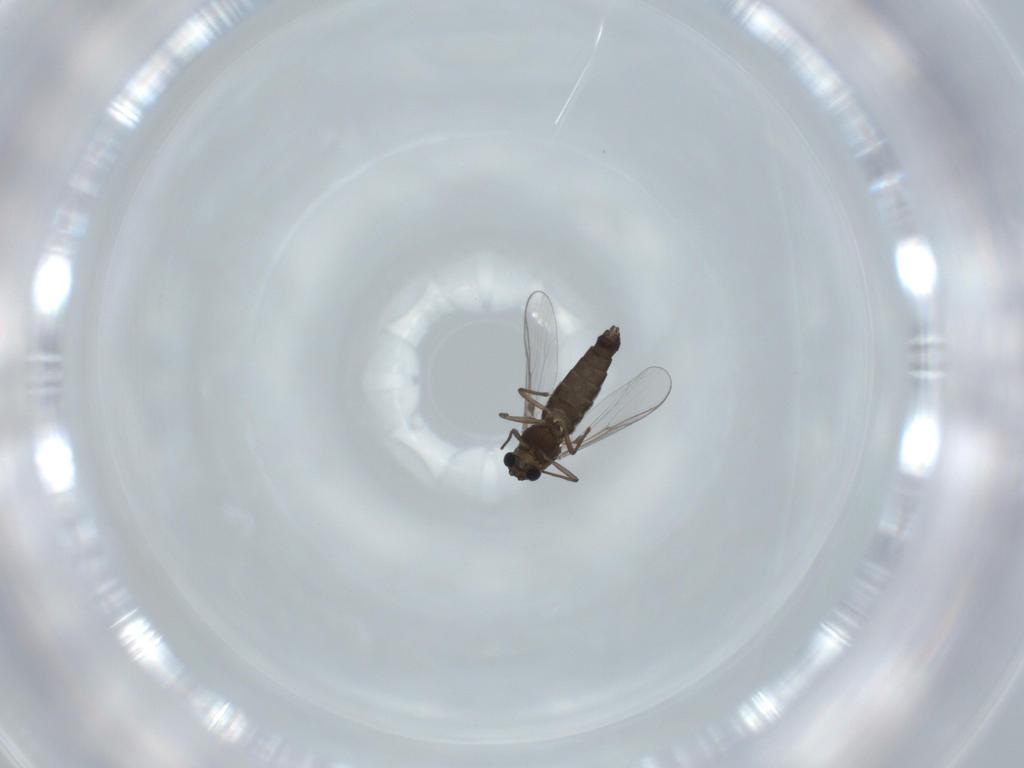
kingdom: Animalia
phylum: Arthropoda
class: Insecta
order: Diptera
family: Chironomidae
